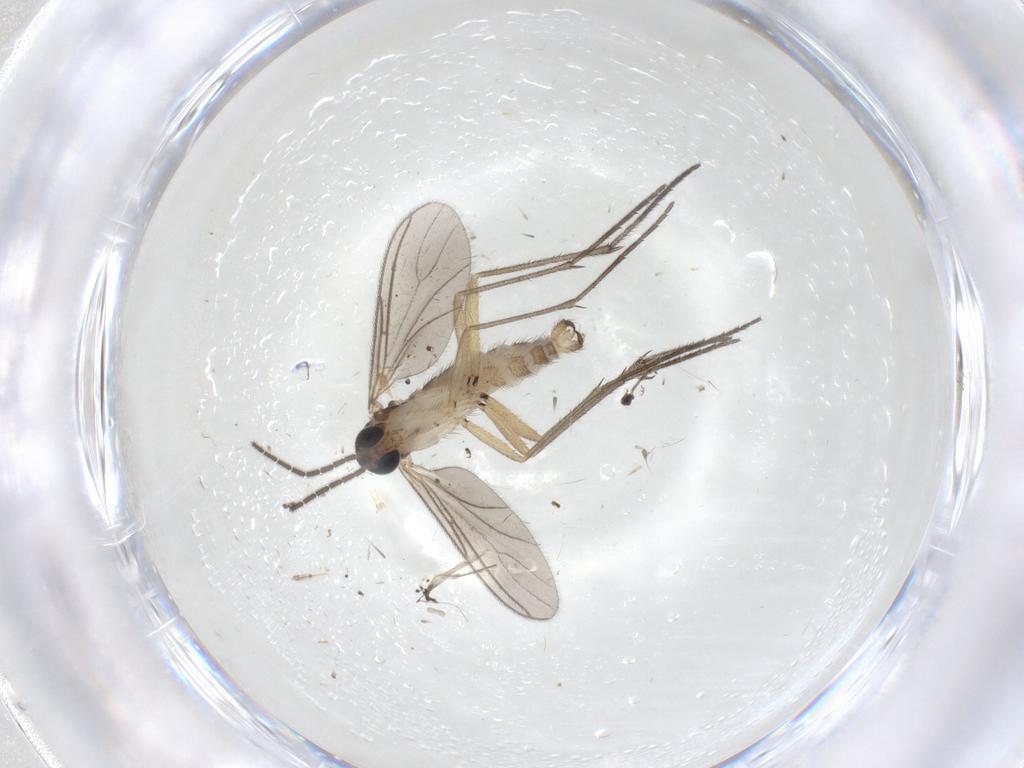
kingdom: Animalia
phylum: Arthropoda
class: Insecta
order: Diptera
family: Sciaridae
